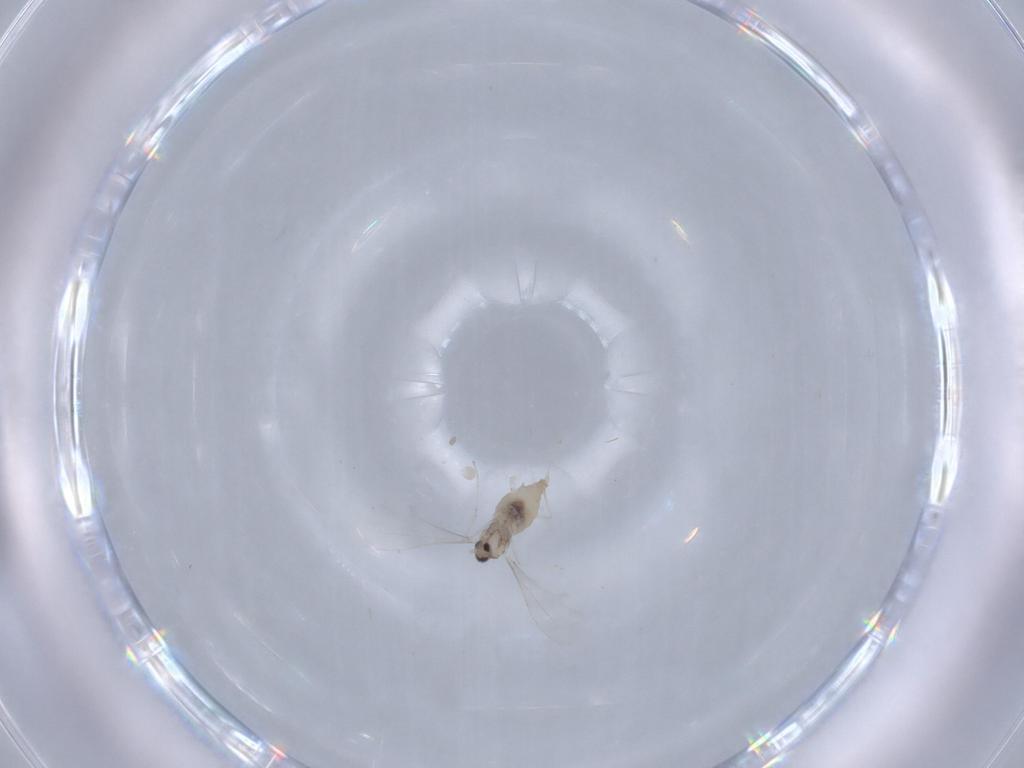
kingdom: Animalia
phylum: Arthropoda
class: Insecta
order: Diptera
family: Cecidomyiidae
